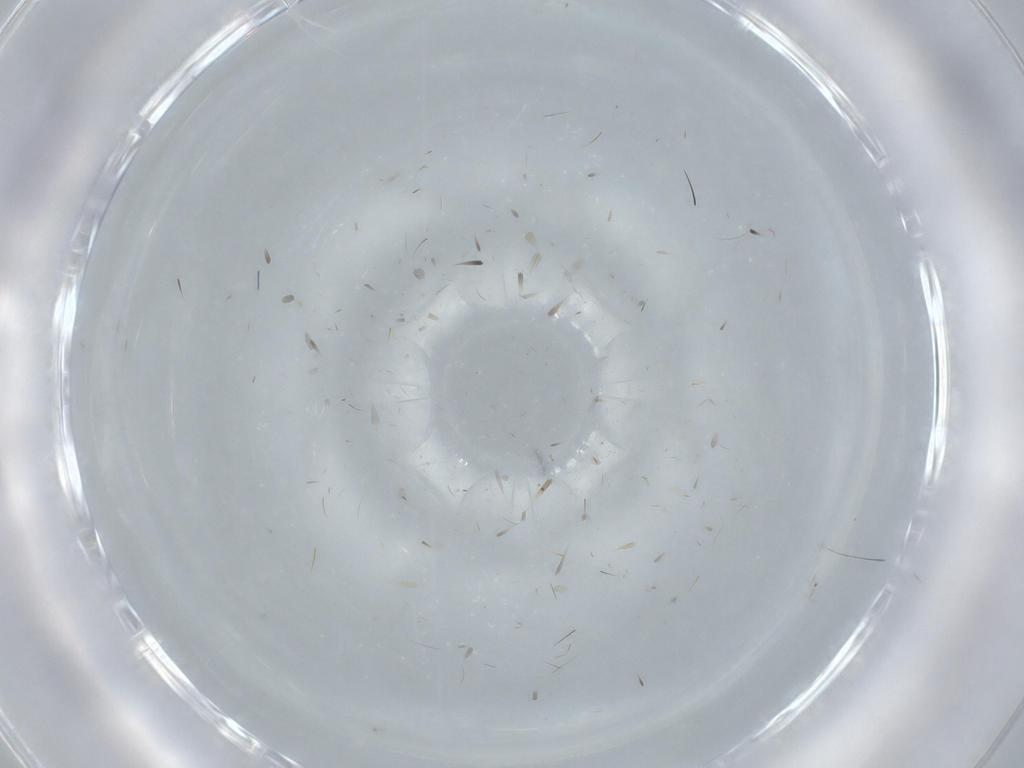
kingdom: Animalia
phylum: Arthropoda
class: Insecta
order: Blattodea
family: Blaberidae
